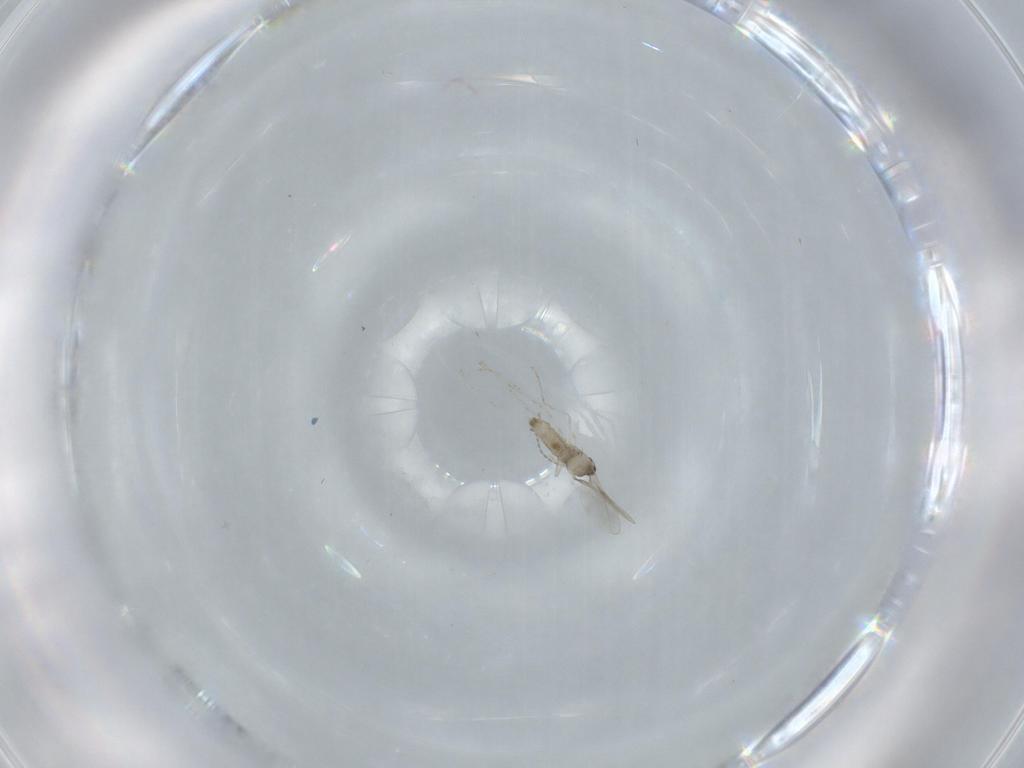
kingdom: Animalia
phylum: Arthropoda
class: Insecta
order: Diptera
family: Cecidomyiidae
